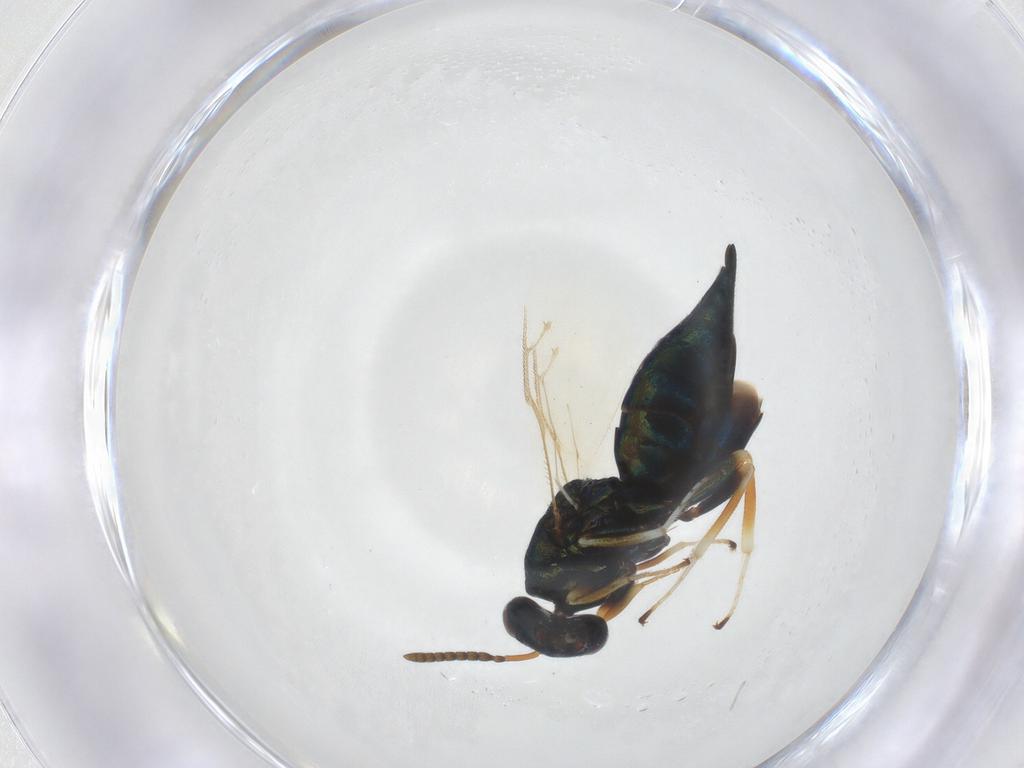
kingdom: Animalia
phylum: Arthropoda
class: Insecta
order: Hymenoptera
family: Pteromalidae
